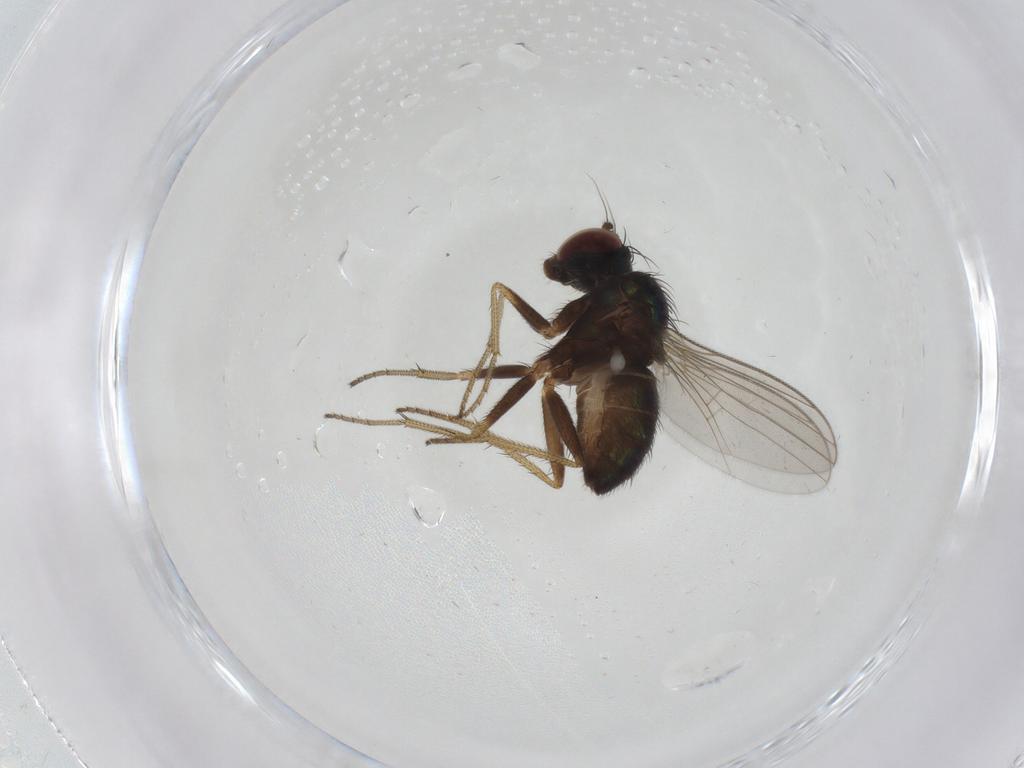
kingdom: Animalia
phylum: Arthropoda
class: Insecta
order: Diptera
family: Dolichopodidae
